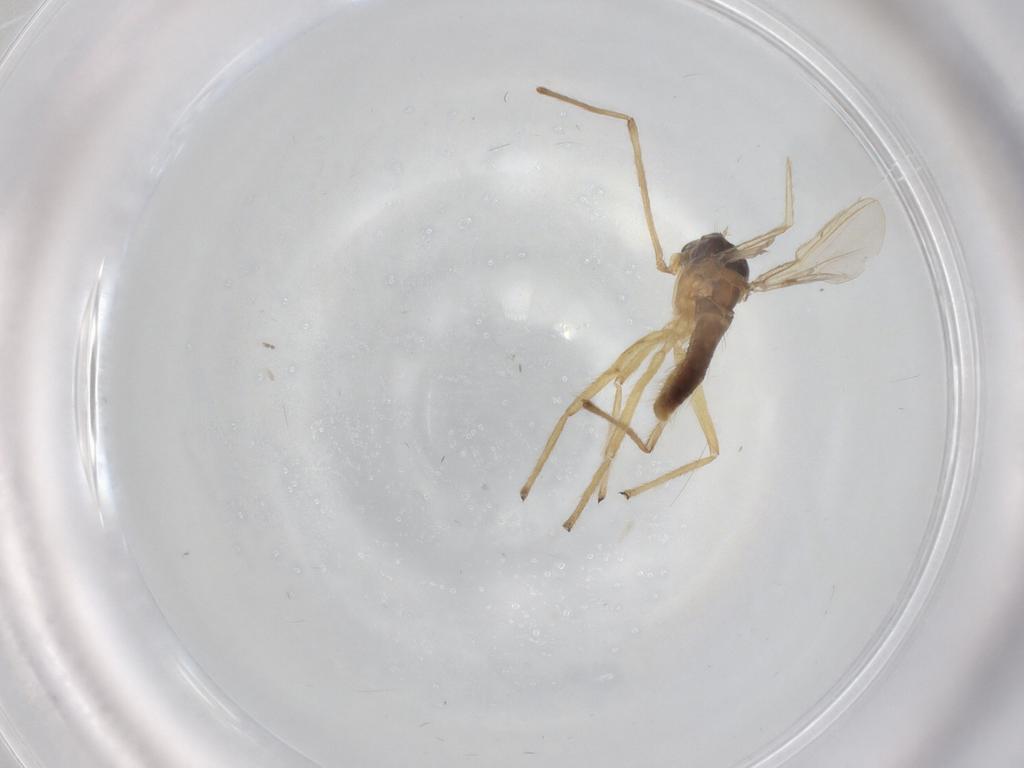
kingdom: Animalia
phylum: Arthropoda
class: Insecta
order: Diptera
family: Chironomidae
